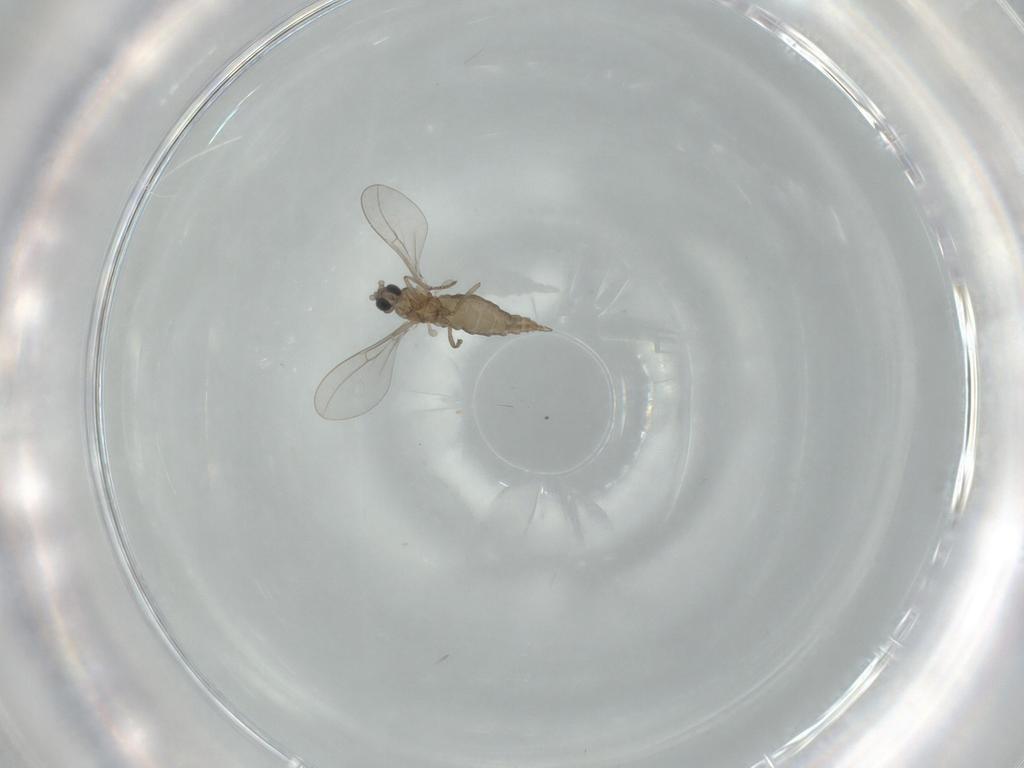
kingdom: Animalia
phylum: Arthropoda
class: Insecta
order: Diptera
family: Cecidomyiidae
